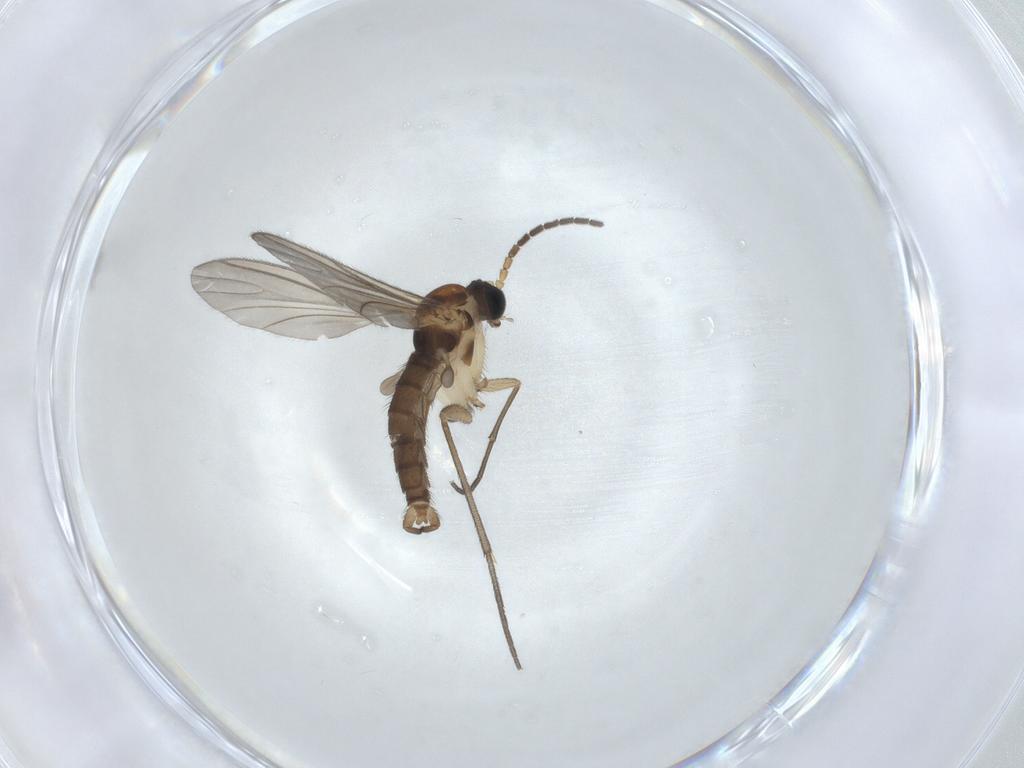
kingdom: Animalia
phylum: Arthropoda
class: Insecta
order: Diptera
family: Sciaridae
